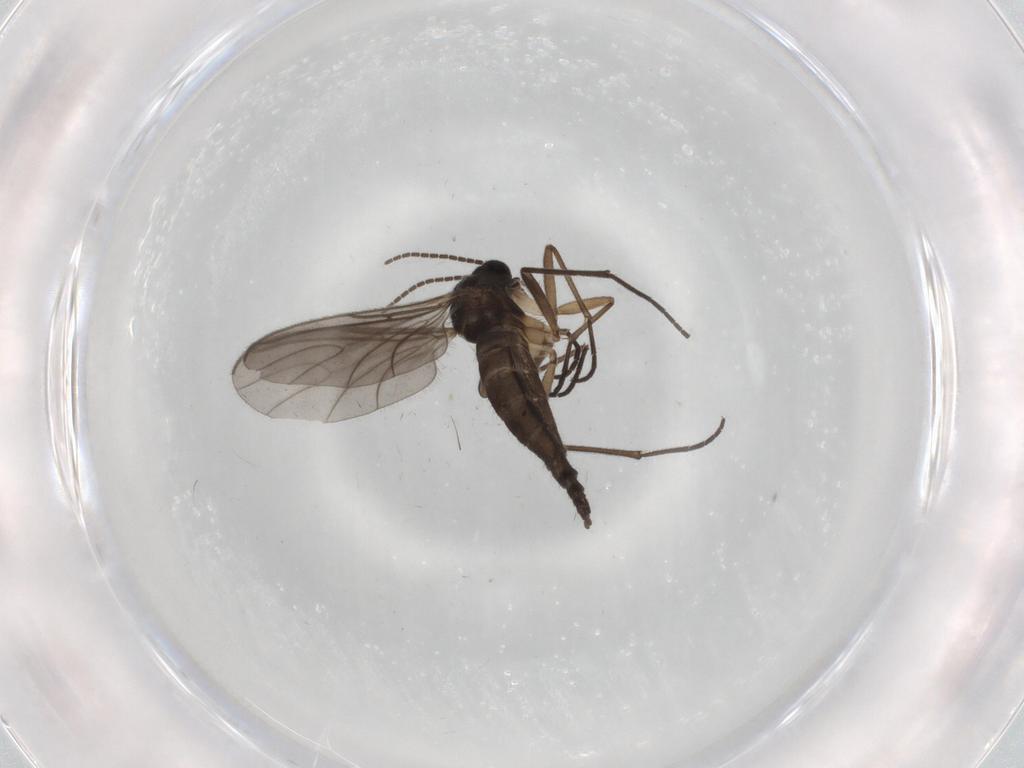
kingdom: Animalia
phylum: Arthropoda
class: Insecta
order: Diptera
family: Sciaridae
